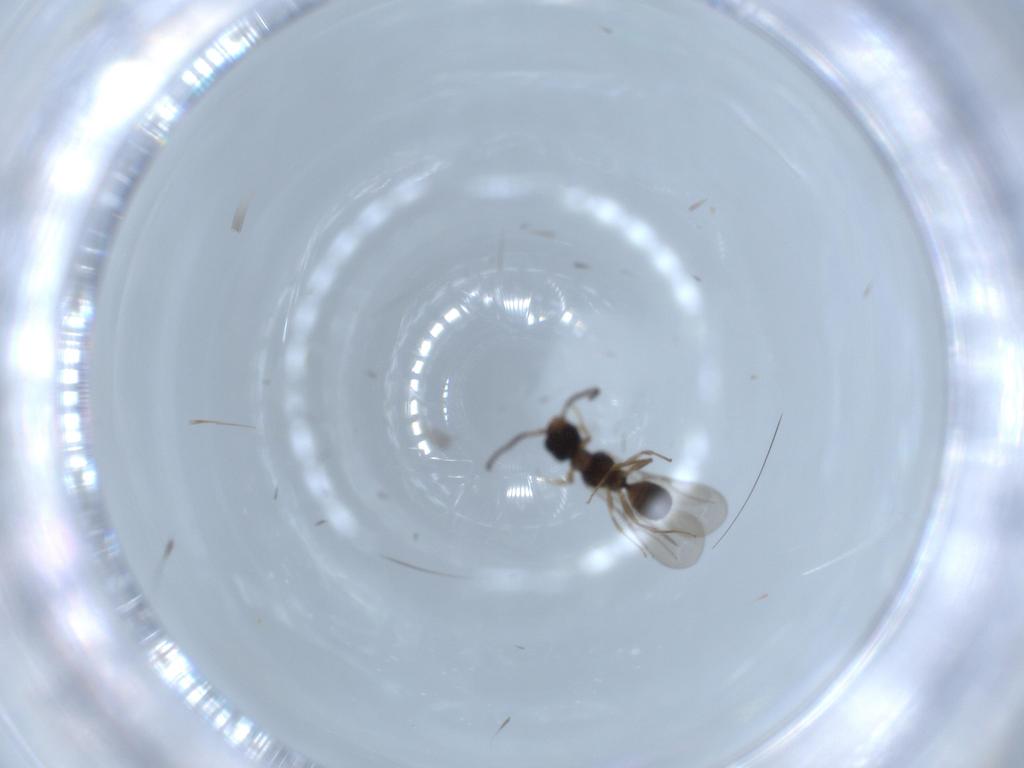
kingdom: Animalia
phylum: Arthropoda
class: Insecta
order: Hymenoptera
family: Bethylidae
